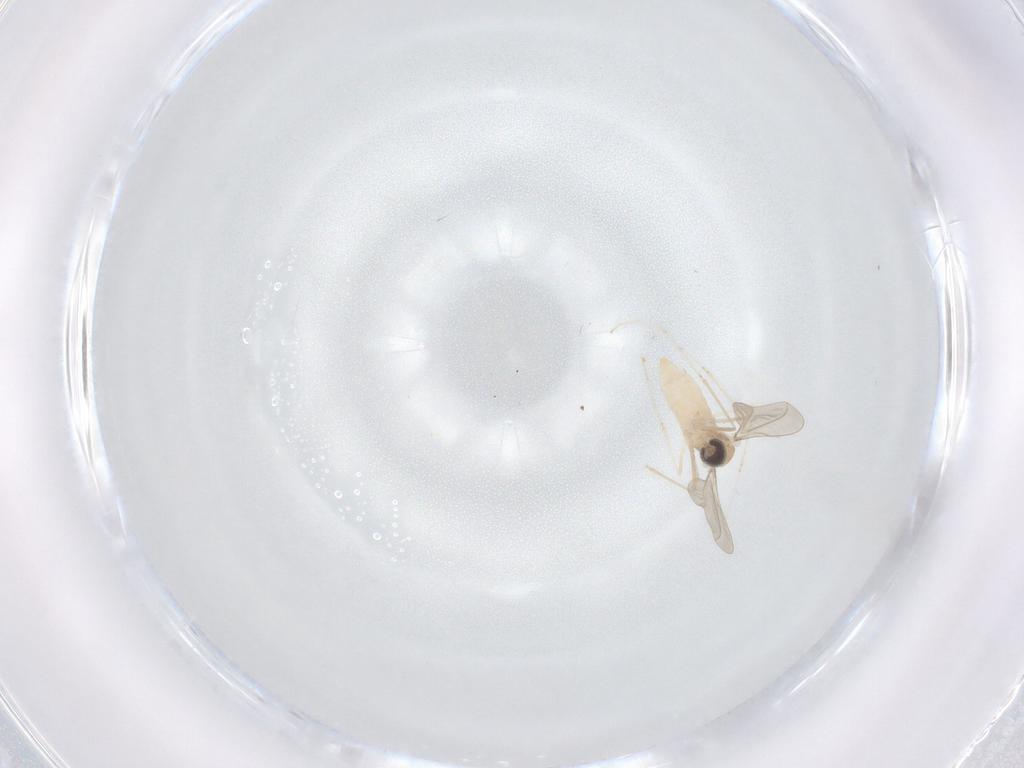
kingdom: Animalia
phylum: Arthropoda
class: Insecta
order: Diptera
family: Cecidomyiidae
